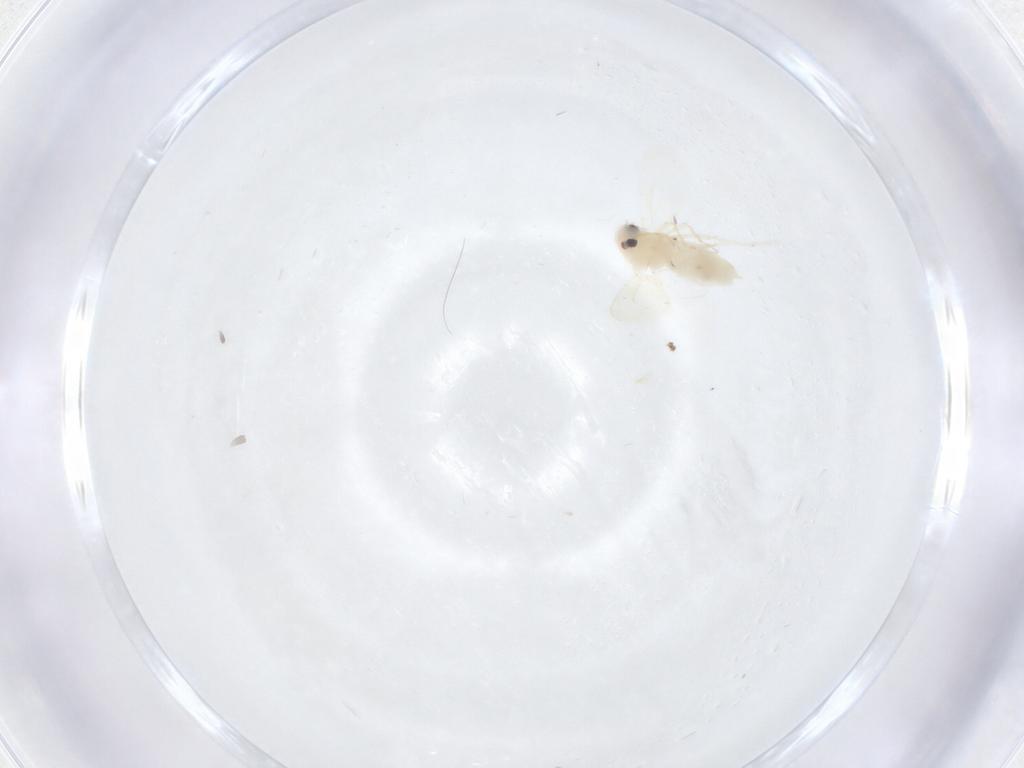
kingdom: Animalia
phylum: Arthropoda
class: Insecta
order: Hemiptera
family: Aleyrodidae
